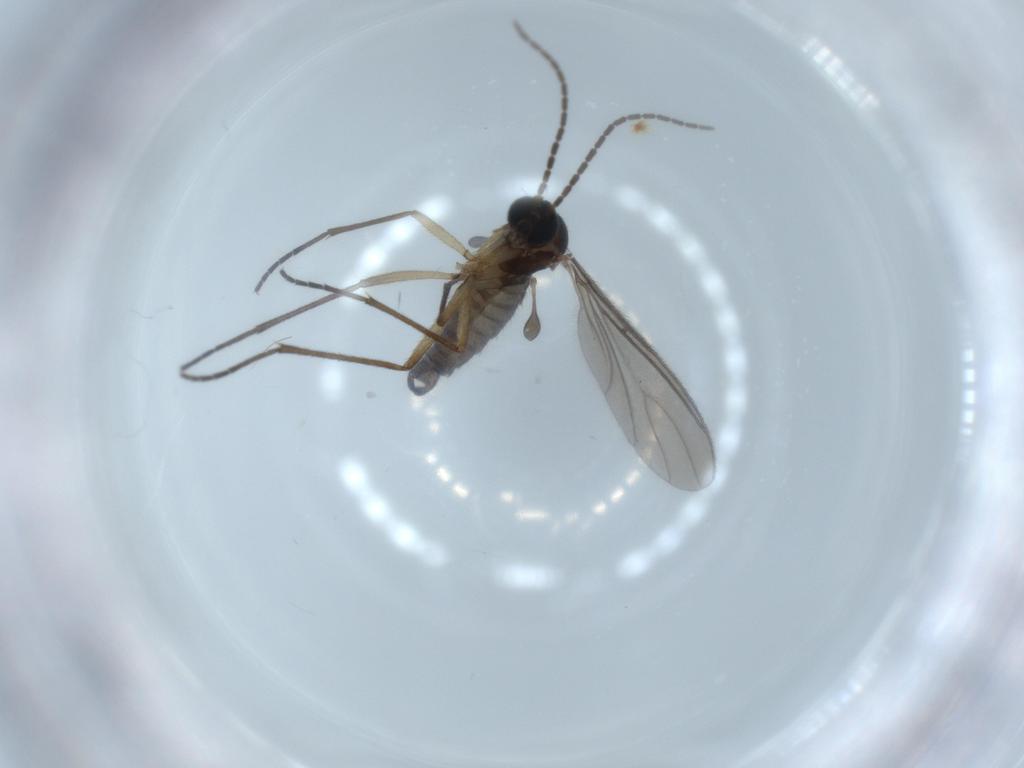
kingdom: Animalia
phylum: Arthropoda
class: Insecta
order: Diptera
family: Sciaridae
